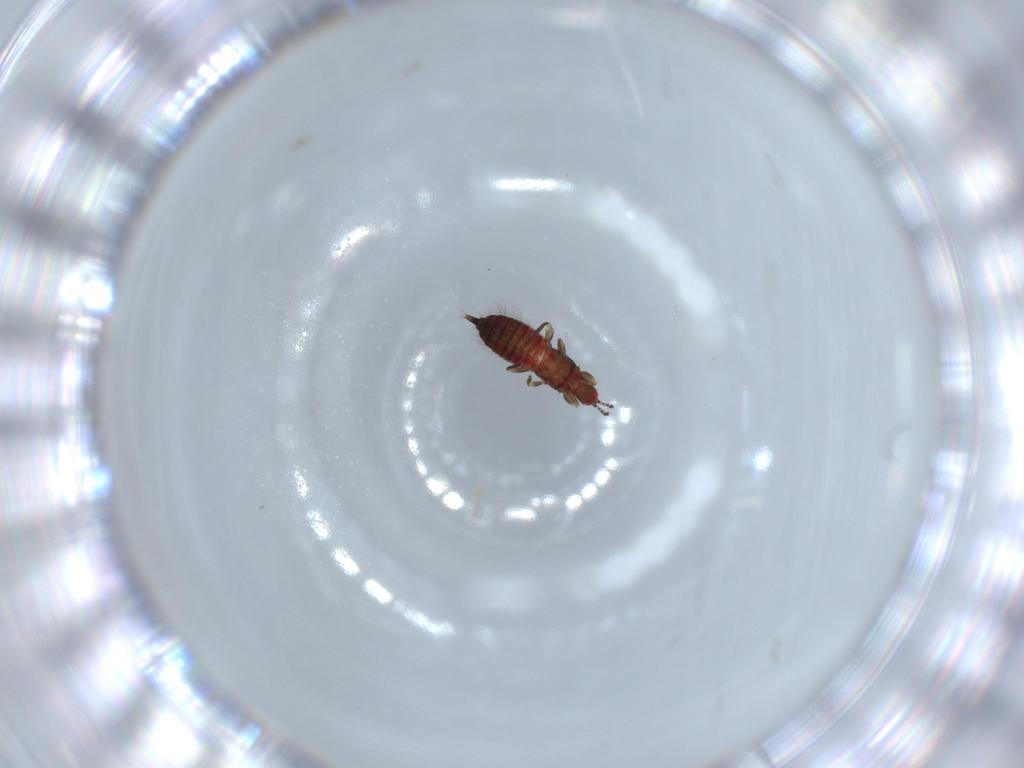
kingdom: Animalia
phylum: Arthropoda
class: Insecta
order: Thysanoptera
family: Phlaeothripidae
